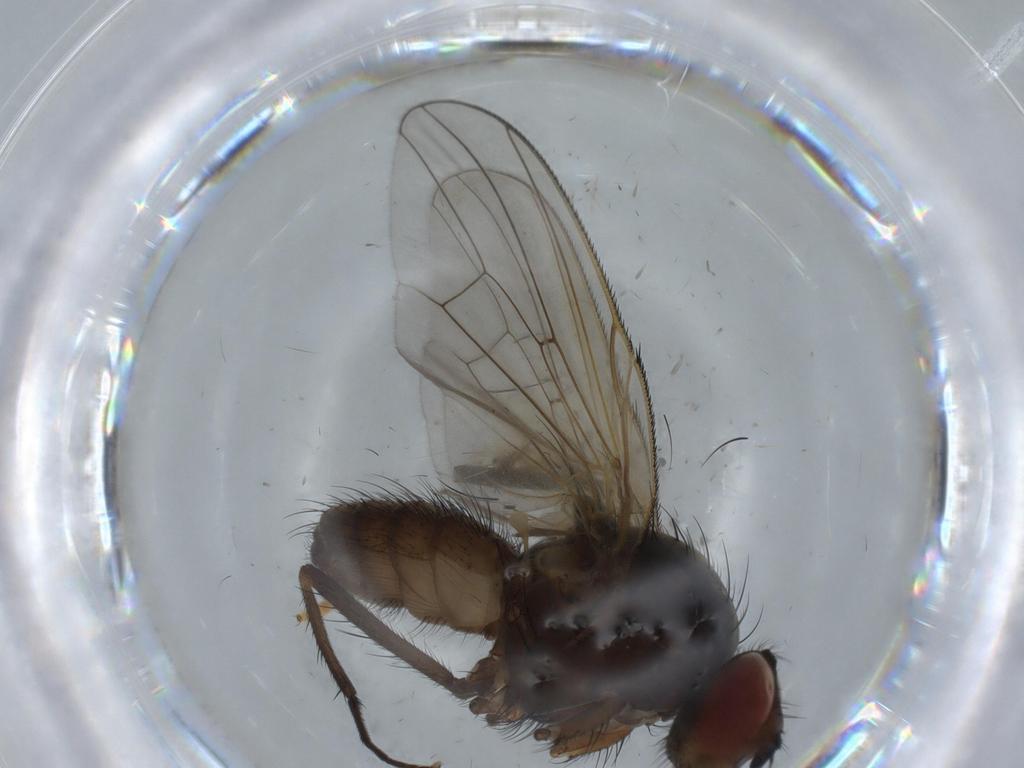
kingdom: Animalia
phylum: Arthropoda
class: Insecta
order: Diptera
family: Anthomyiidae
